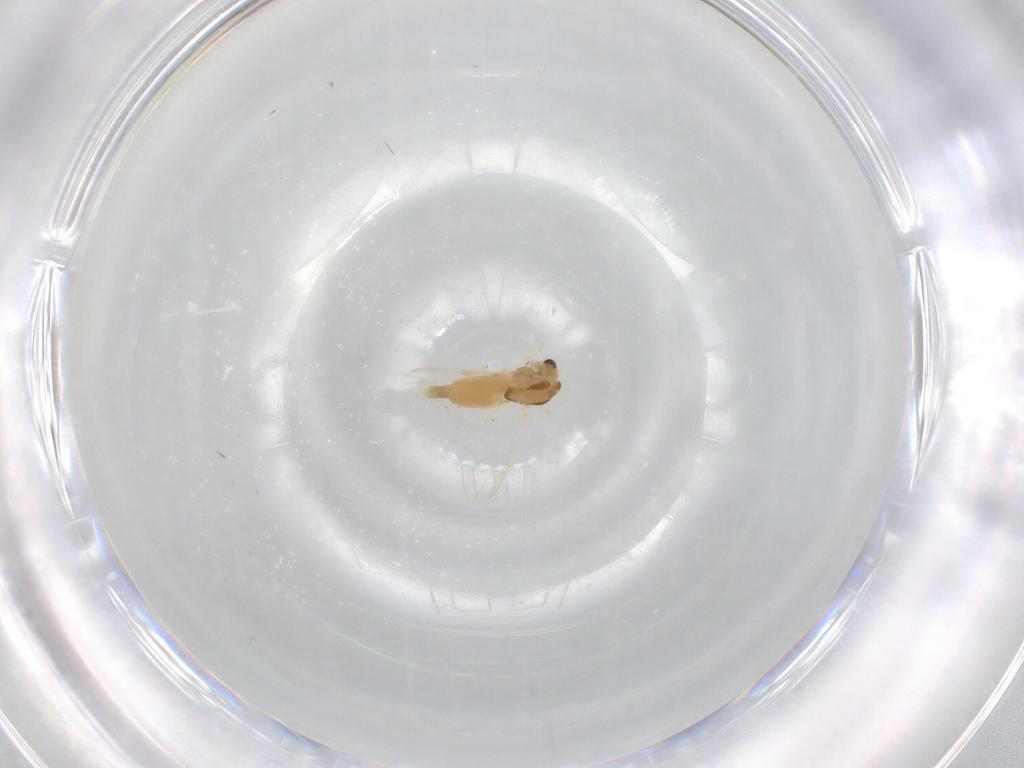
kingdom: Animalia
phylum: Arthropoda
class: Insecta
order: Diptera
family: Chironomidae
